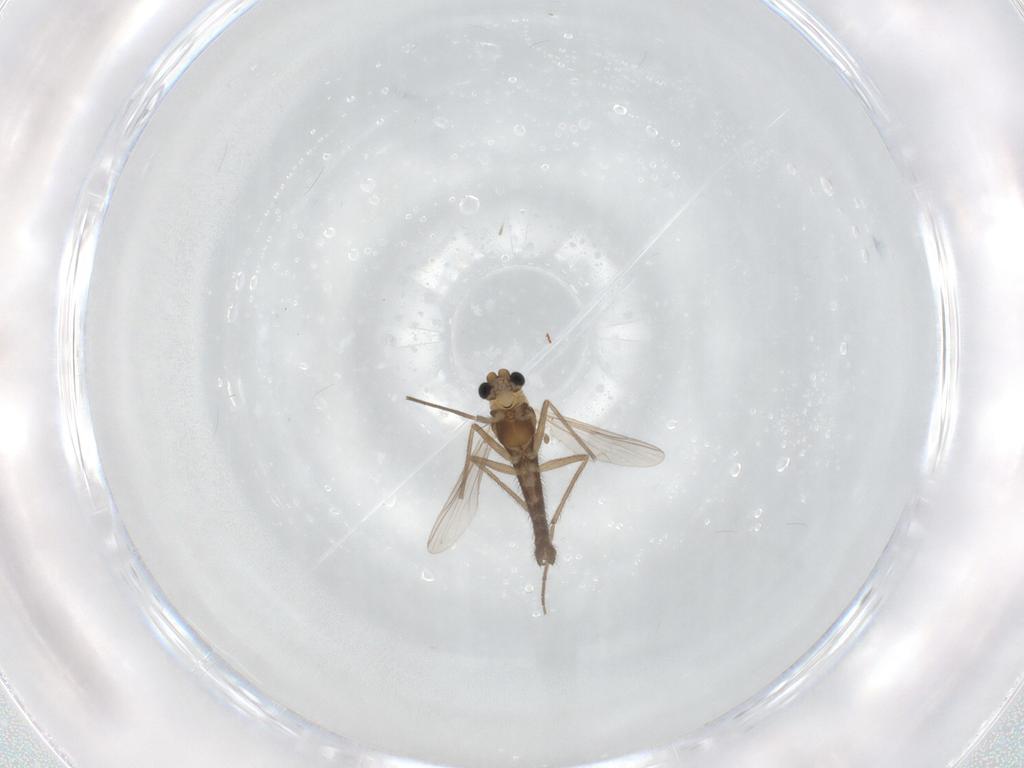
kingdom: Animalia
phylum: Arthropoda
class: Insecta
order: Diptera
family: Chironomidae
